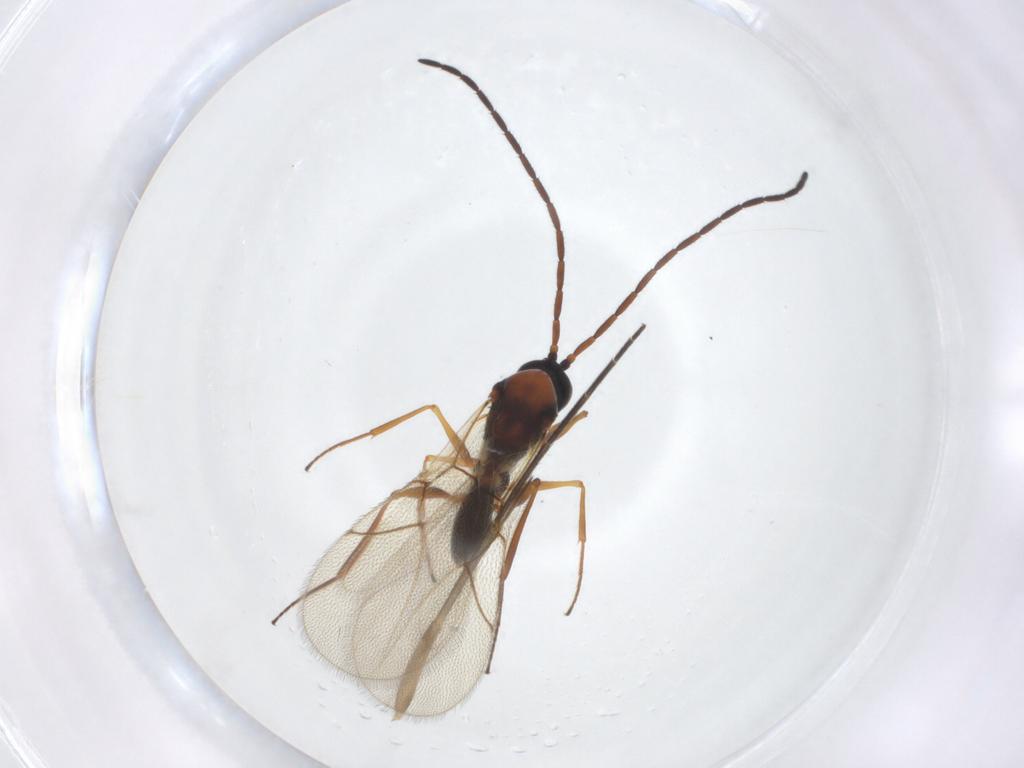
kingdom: Animalia
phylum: Arthropoda
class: Insecta
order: Hymenoptera
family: Figitidae
